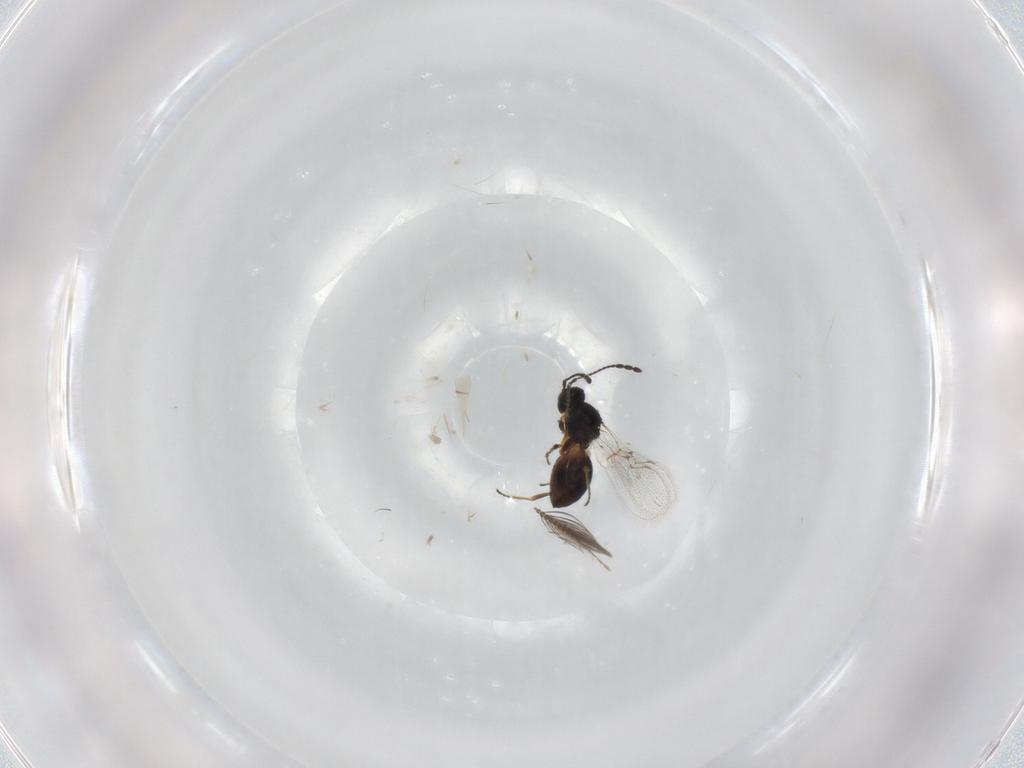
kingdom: Animalia
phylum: Arthropoda
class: Insecta
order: Hymenoptera
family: Figitidae
